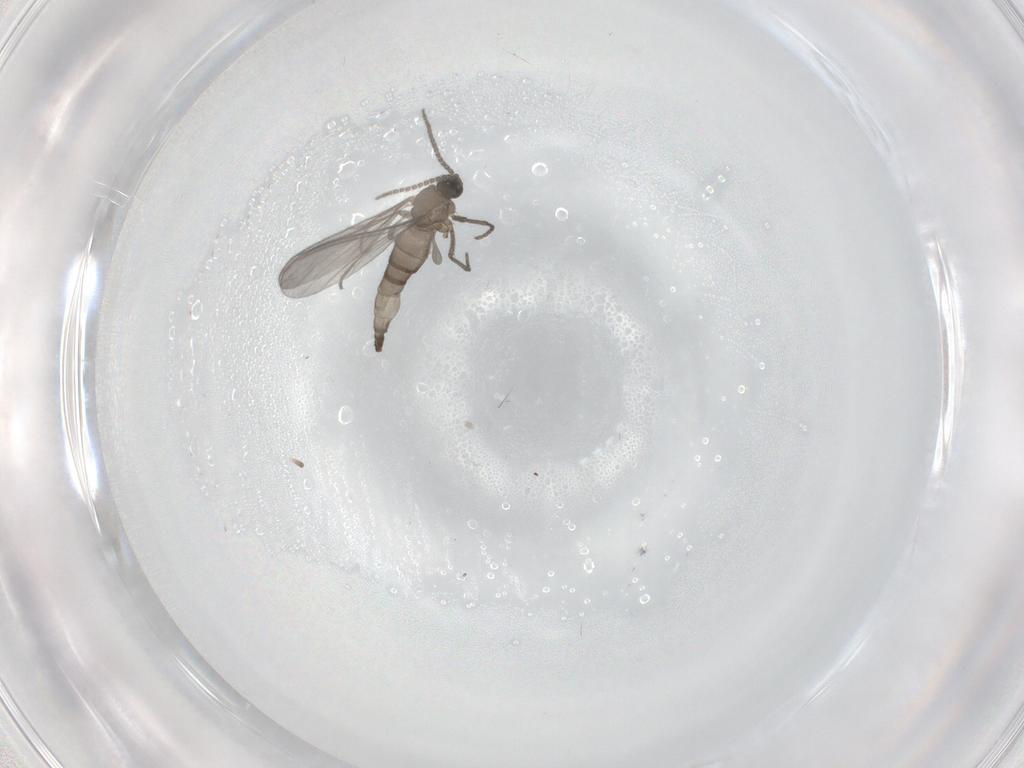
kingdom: Animalia
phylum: Arthropoda
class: Insecta
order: Diptera
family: Sciaridae
